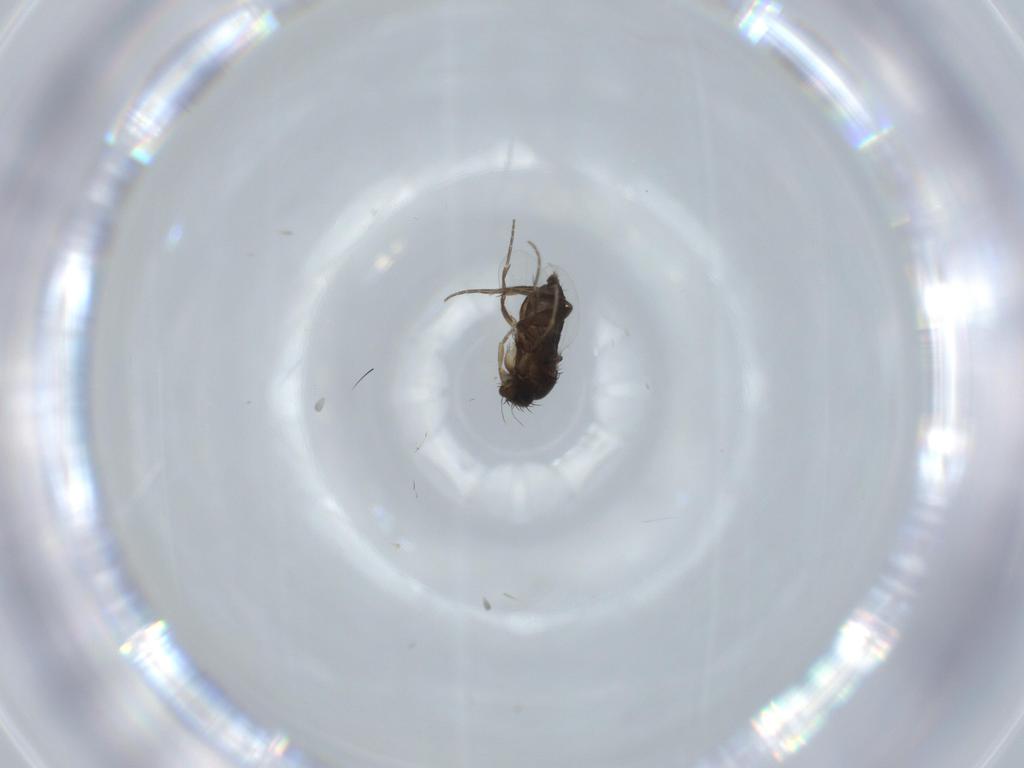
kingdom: Animalia
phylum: Arthropoda
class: Insecta
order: Diptera
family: Phoridae
